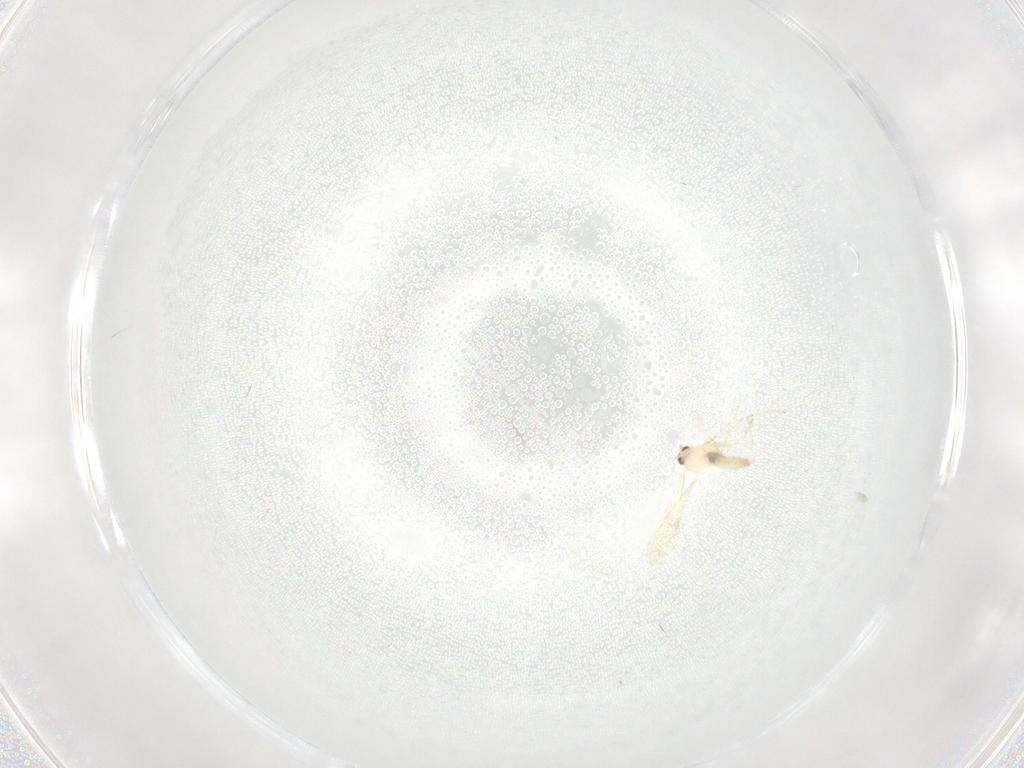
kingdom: Animalia
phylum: Arthropoda
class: Insecta
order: Diptera
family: Cecidomyiidae
